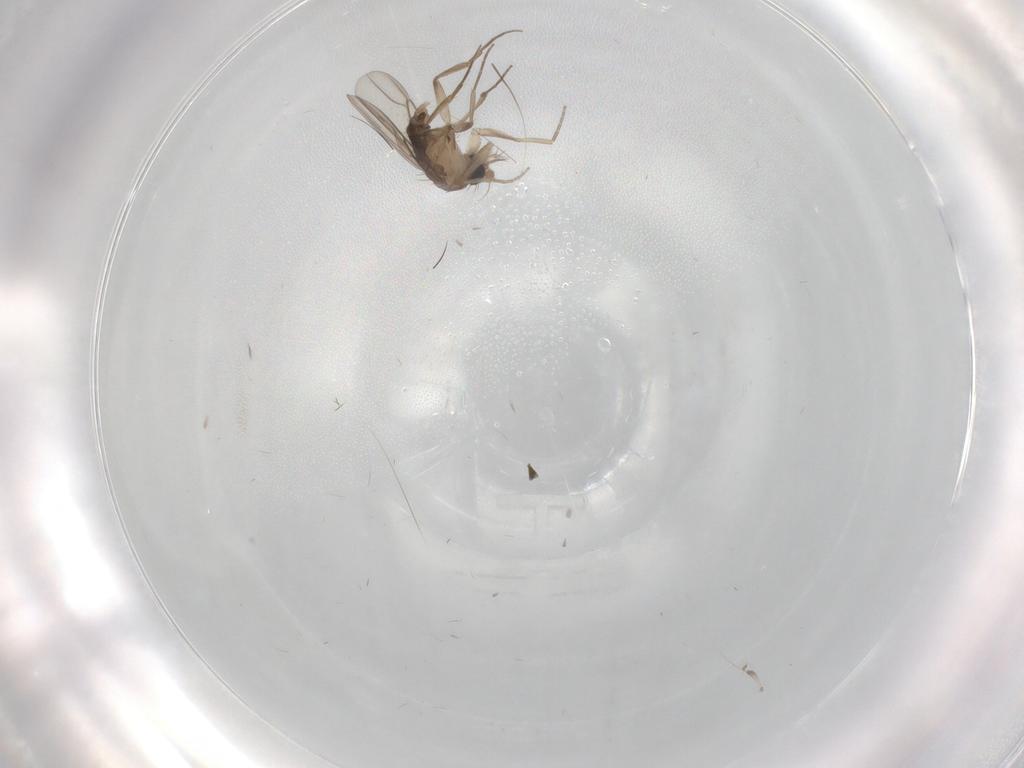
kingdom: Animalia
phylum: Arthropoda
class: Insecta
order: Diptera
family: Cecidomyiidae
